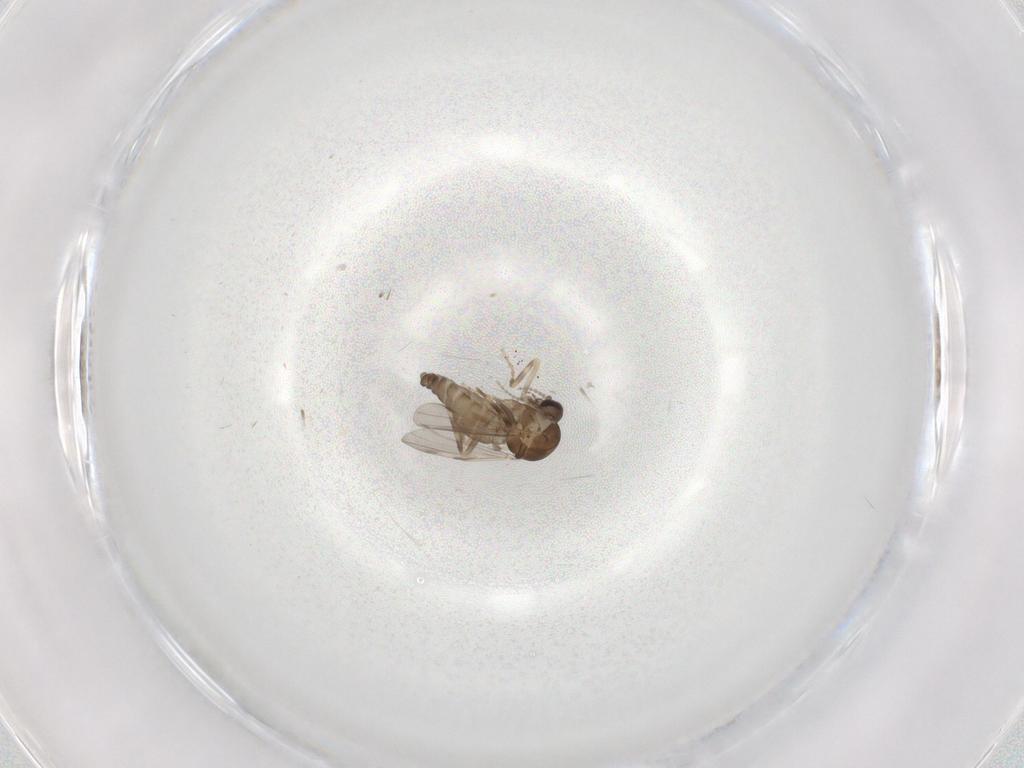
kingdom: Animalia
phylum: Arthropoda
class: Insecta
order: Diptera
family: Ceratopogonidae
